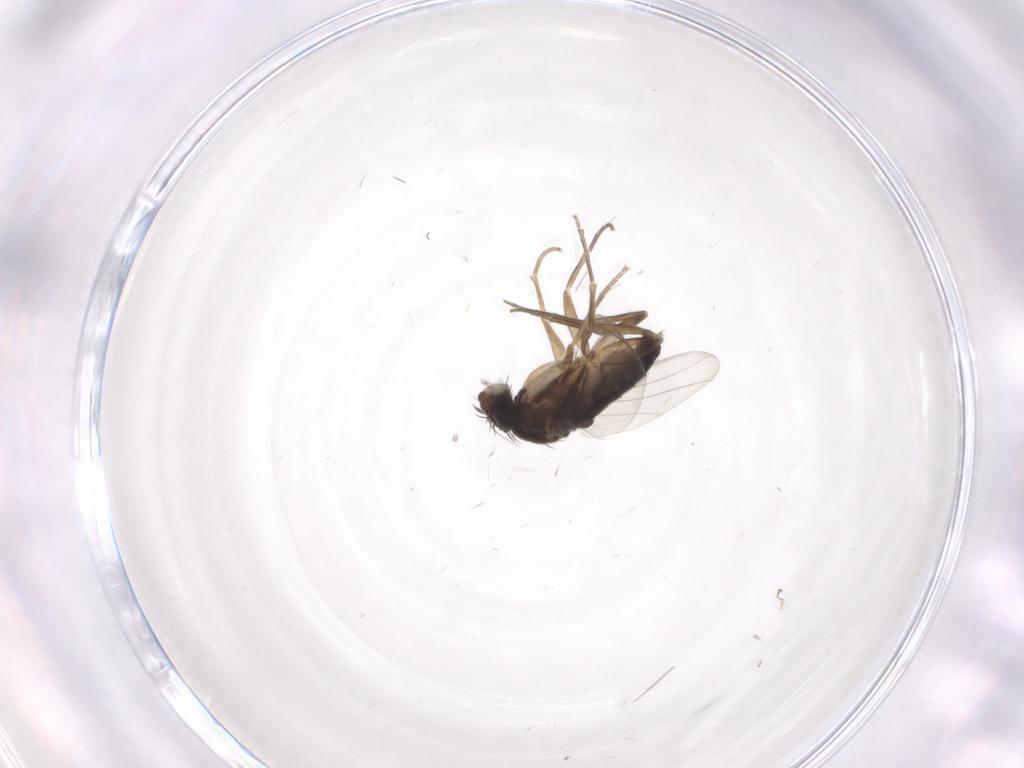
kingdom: Animalia
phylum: Arthropoda
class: Insecta
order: Diptera
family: Phoridae
